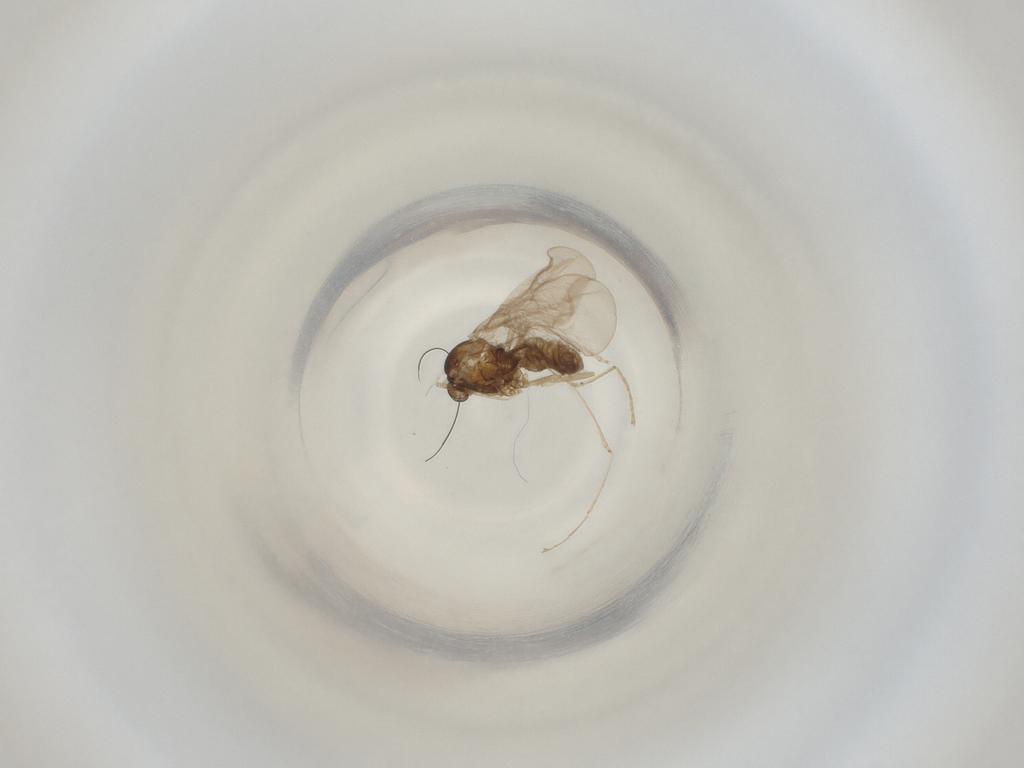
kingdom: Animalia
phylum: Arthropoda
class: Insecta
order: Diptera
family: Cecidomyiidae
